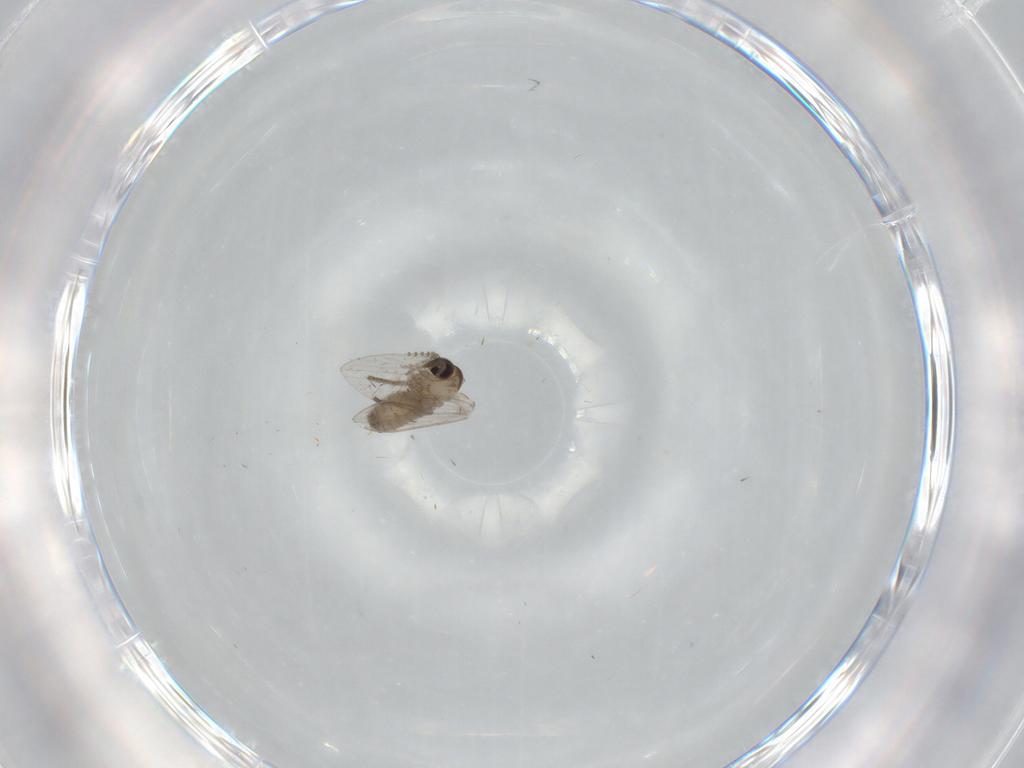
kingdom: Animalia
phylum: Arthropoda
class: Insecta
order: Diptera
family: Psychodidae
